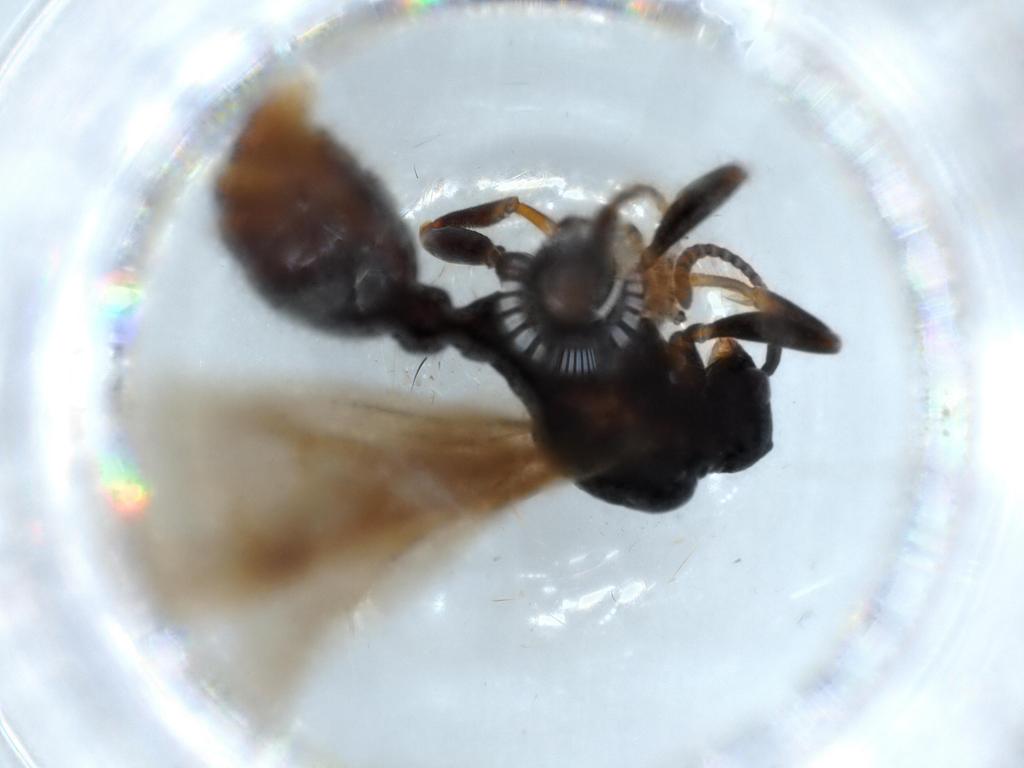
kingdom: Animalia
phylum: Arthropoda
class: Insecta
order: Hymenoptera
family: Formicidae
